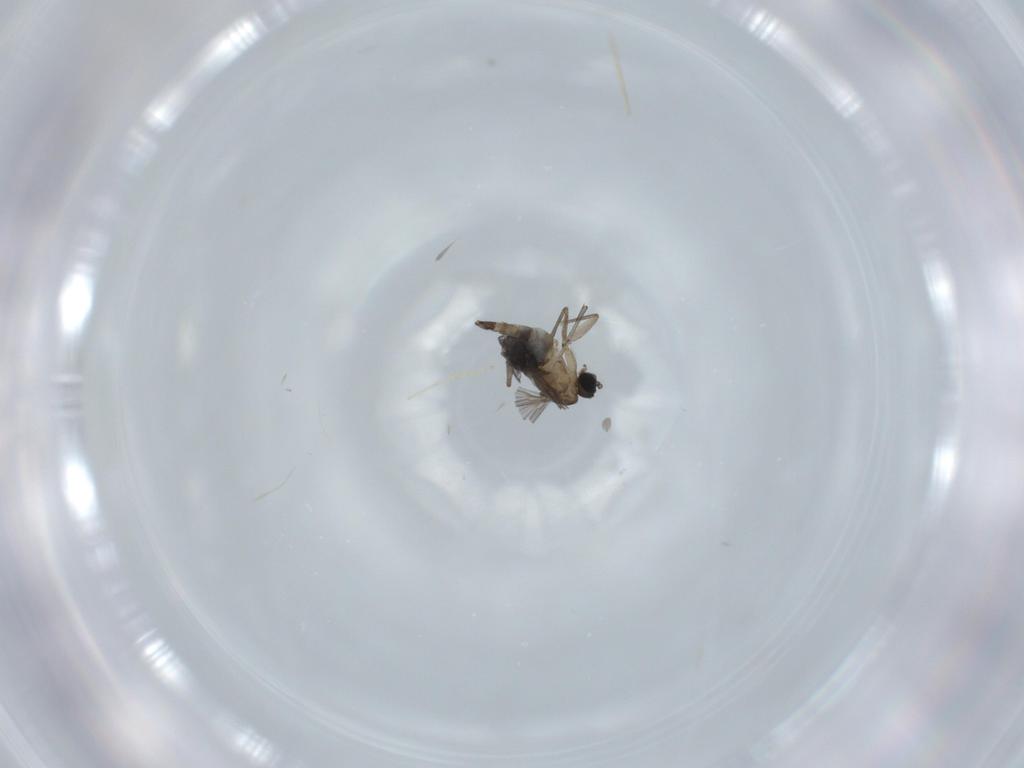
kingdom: Animalia
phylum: Arthropoda
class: Insecta
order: Diptera
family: Sciaridae
